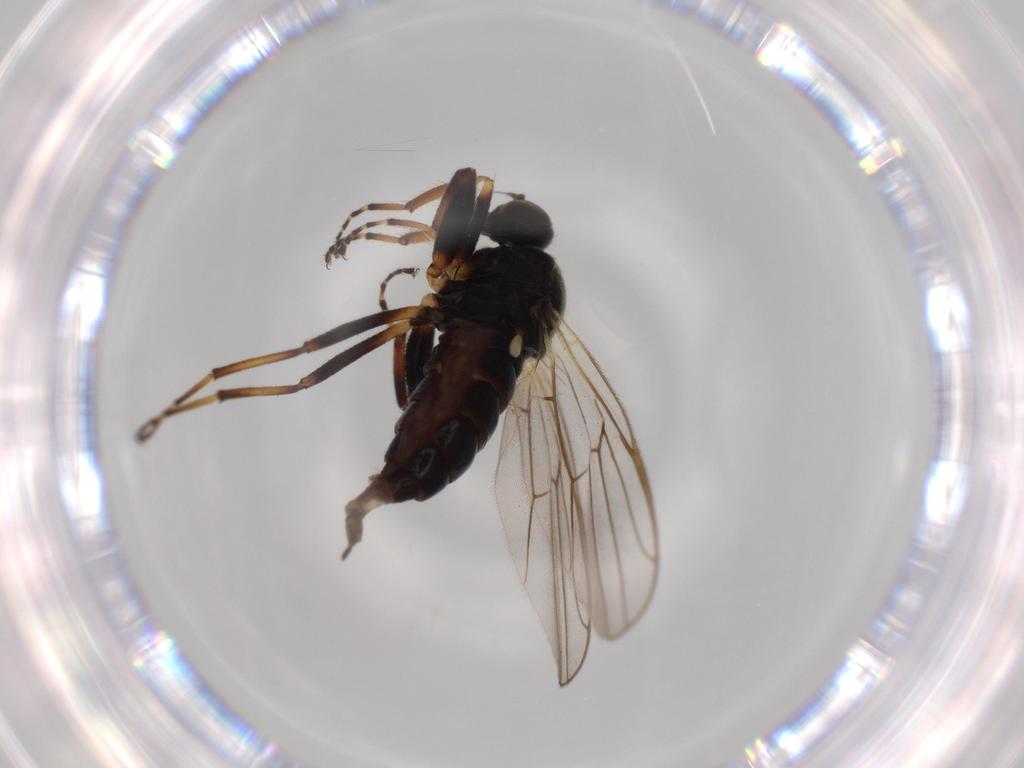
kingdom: Animalia
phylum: Arthropoda
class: Insecta
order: Diptera
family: Hybotidae
